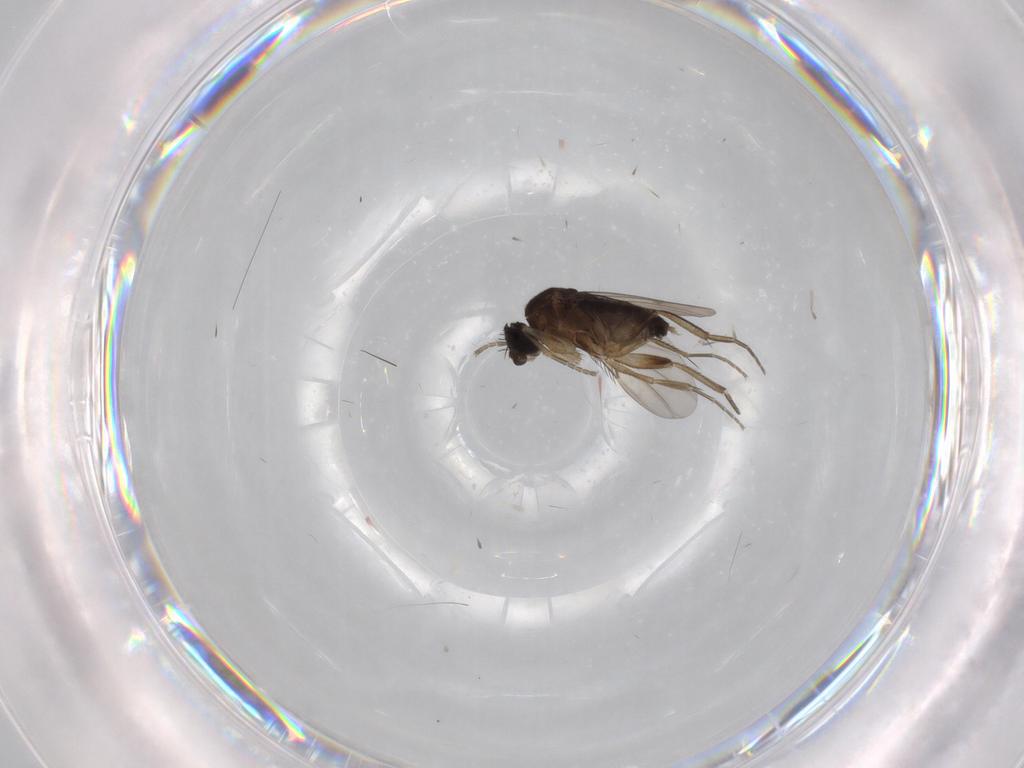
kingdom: Animalia
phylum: Arthropoda
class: Insecta
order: Diptera
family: Phoridae
